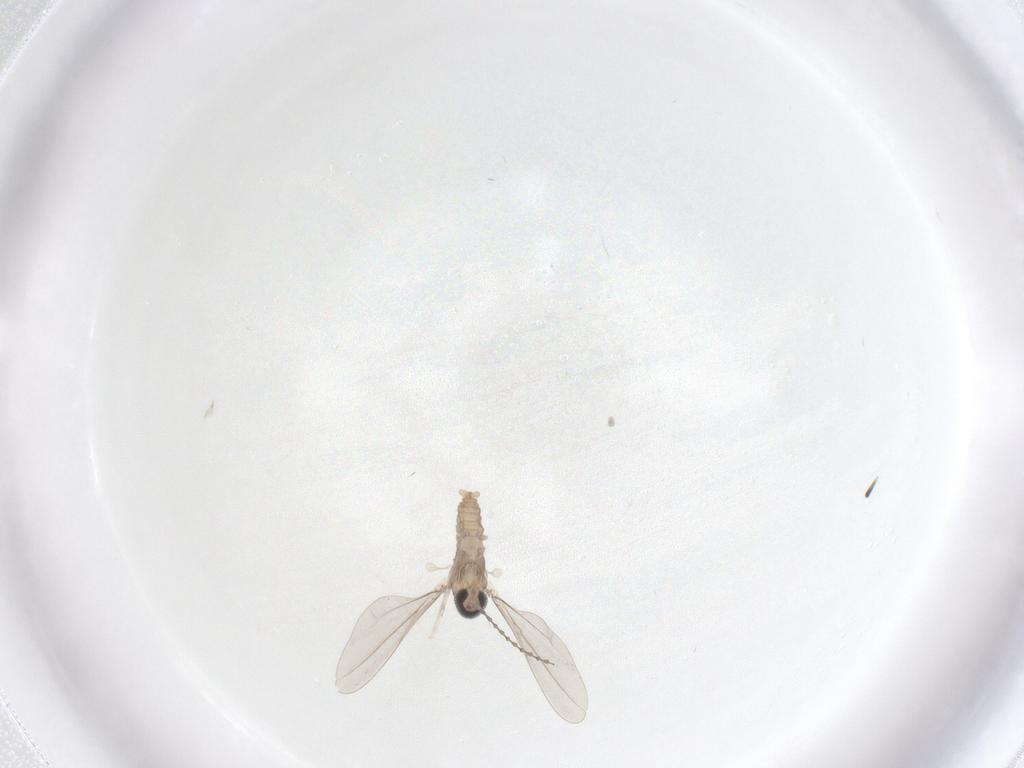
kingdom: Animalia
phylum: Arthropoda
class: Insecta
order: Diptera
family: Cecidomyiidae
